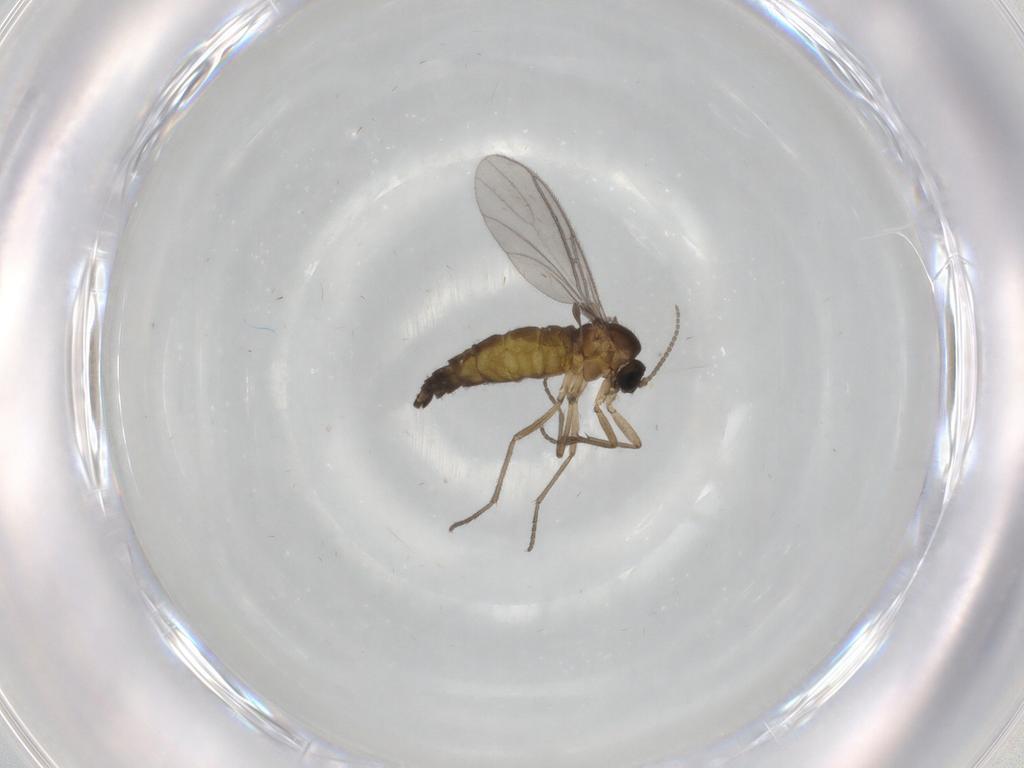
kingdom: Animalia
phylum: Arthropoda
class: Insecta
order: Diptera
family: Sciaridae
